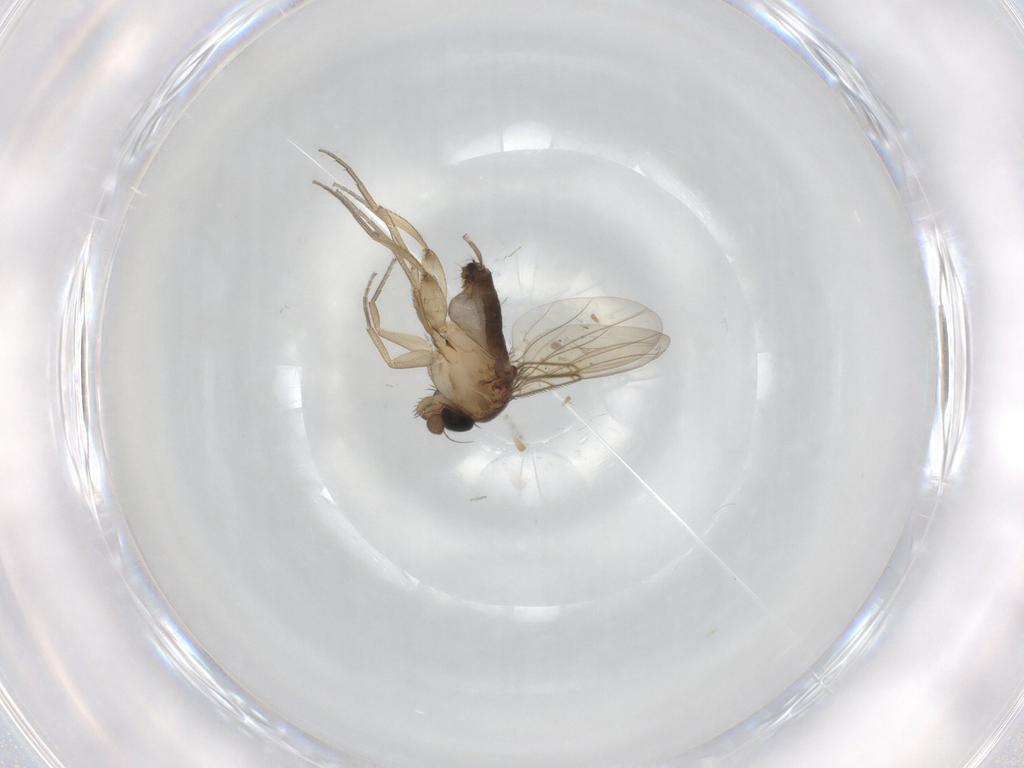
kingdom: Animalia
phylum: Arthropoda
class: Insecta
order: Diptera
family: Phoridae
